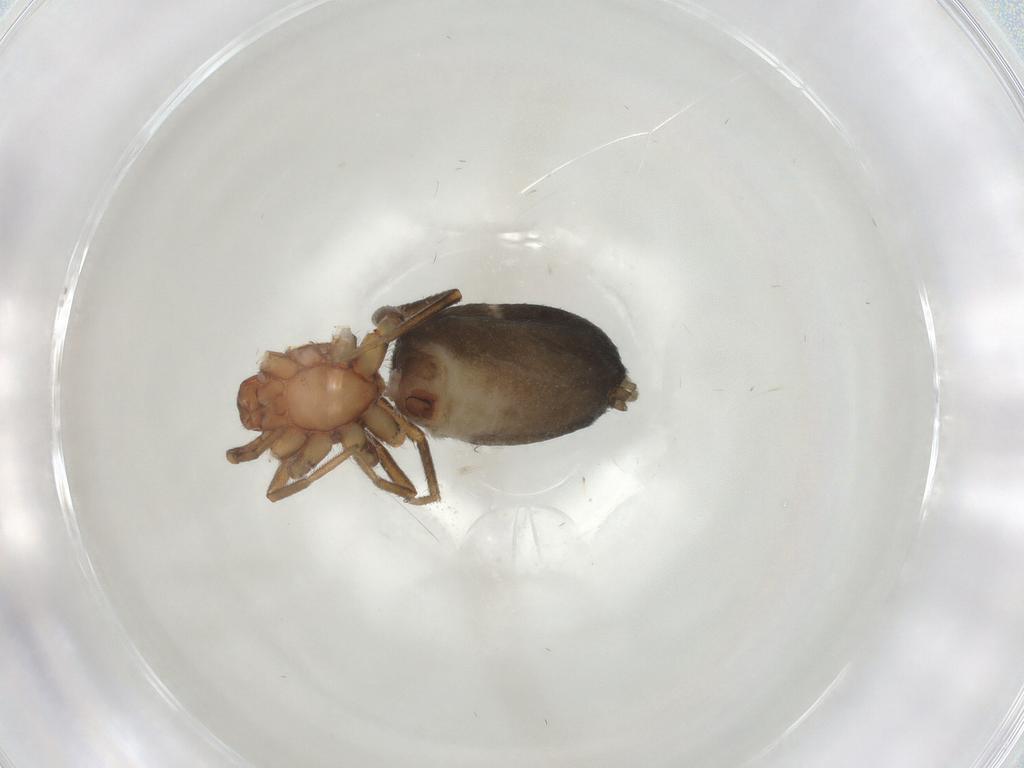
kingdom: Animalia
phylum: Arthropoda
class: Arachnida
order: Araneae
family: Gnaphosidae
